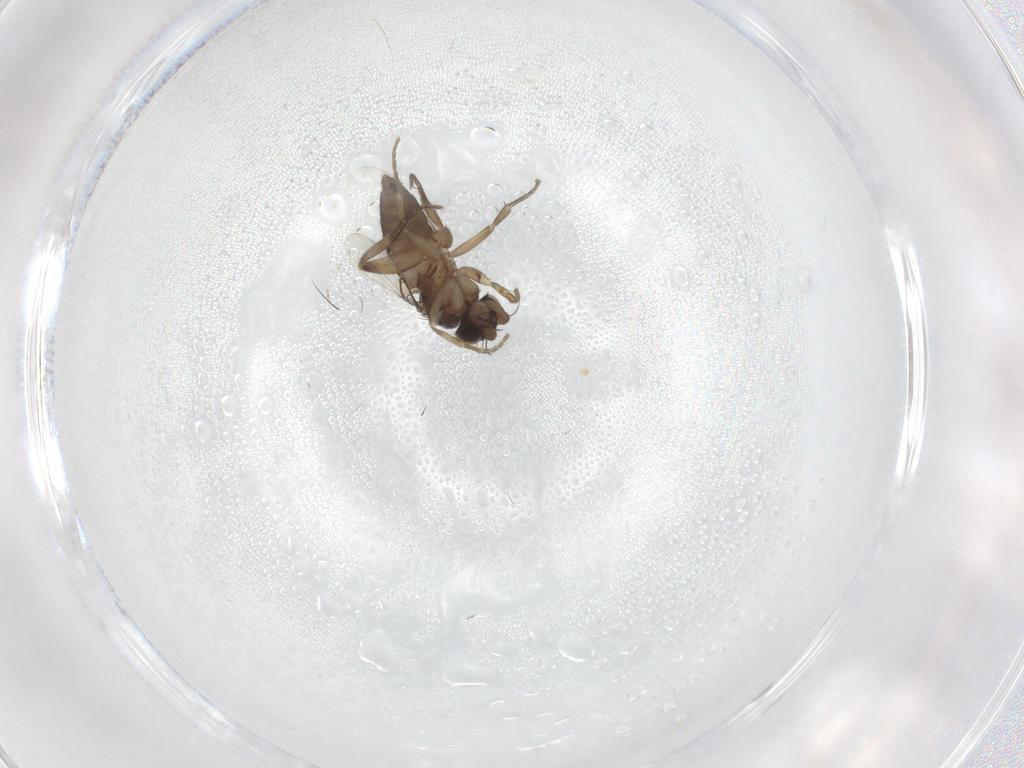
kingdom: Animalia
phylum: Arthropoda
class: Insecta
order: Diptera
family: Phoridae
